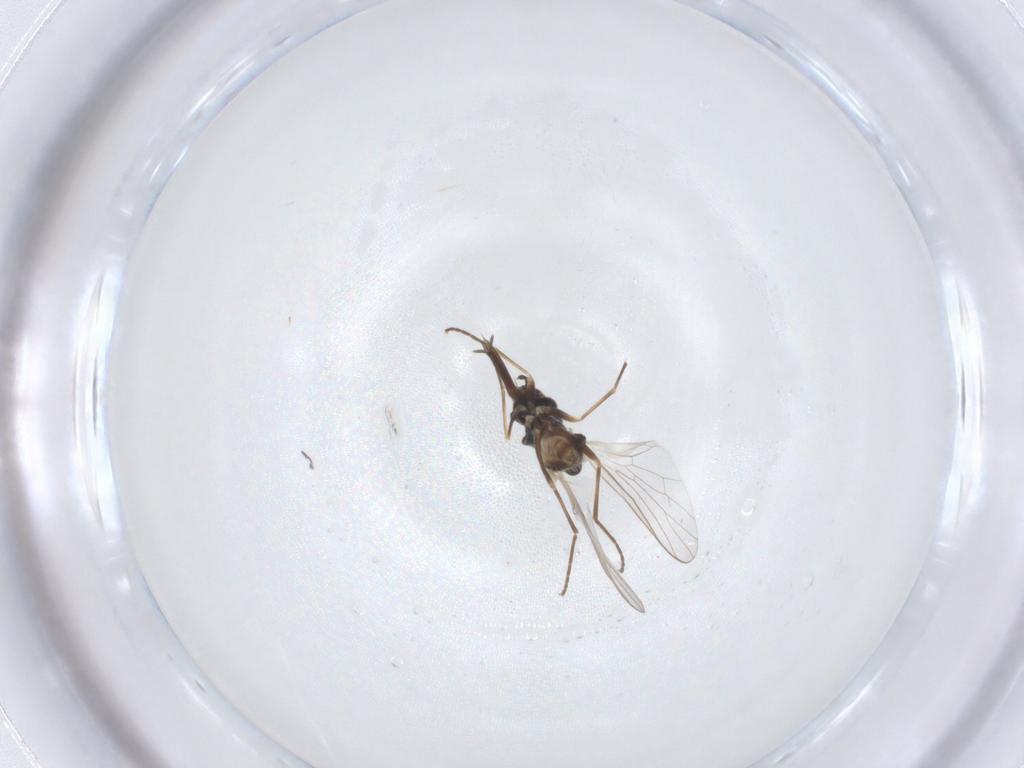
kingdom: Animalia
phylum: Arthropoda
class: Insecta
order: Diptera
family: Bombyliidae
